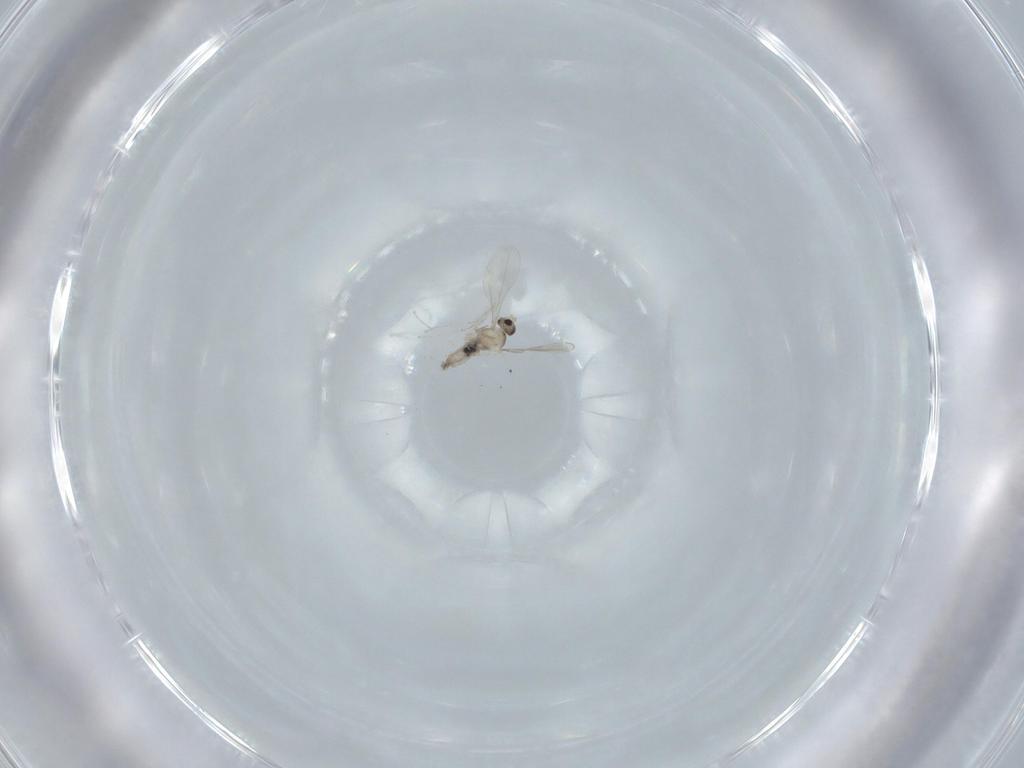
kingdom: Animalia
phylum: Arthropoda
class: Insecta
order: Diptera
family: Cecidomyiidae
